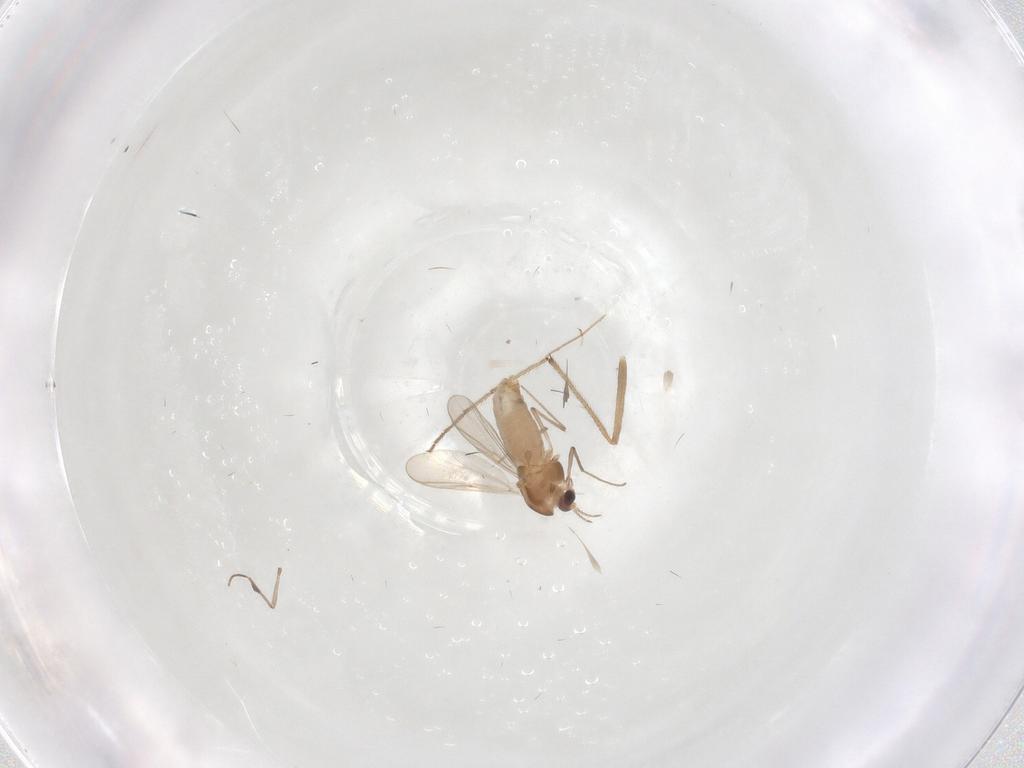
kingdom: Animalia
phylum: Arthropoda
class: Insecta
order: Diptera
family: Chironomidae
